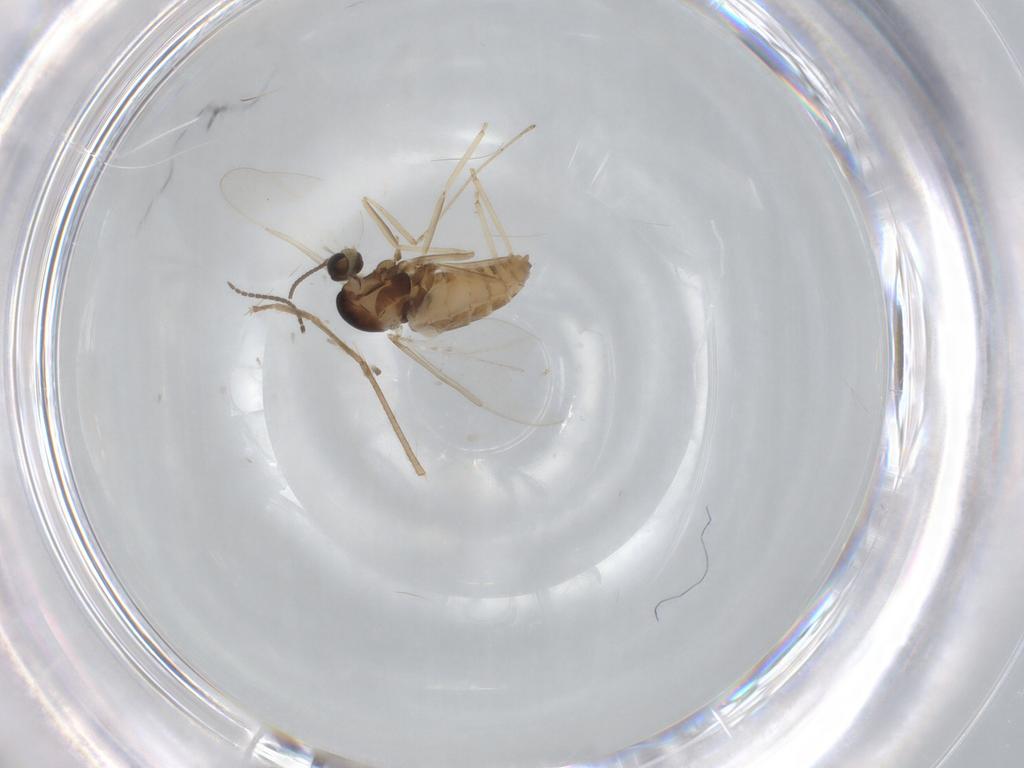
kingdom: Animalia
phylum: Arthropoda
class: Insecta
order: Diptera
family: Cecidomyiidae
